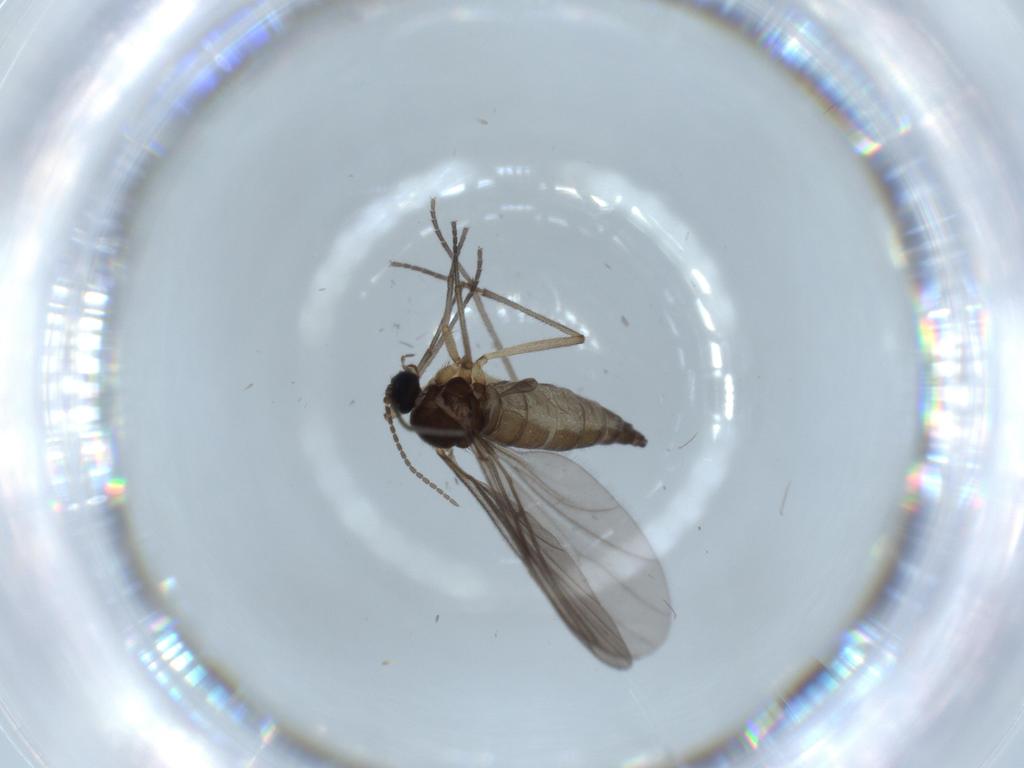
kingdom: Animalia
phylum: Arthropoda
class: Insecta
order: Diptera
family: Sciaridae
